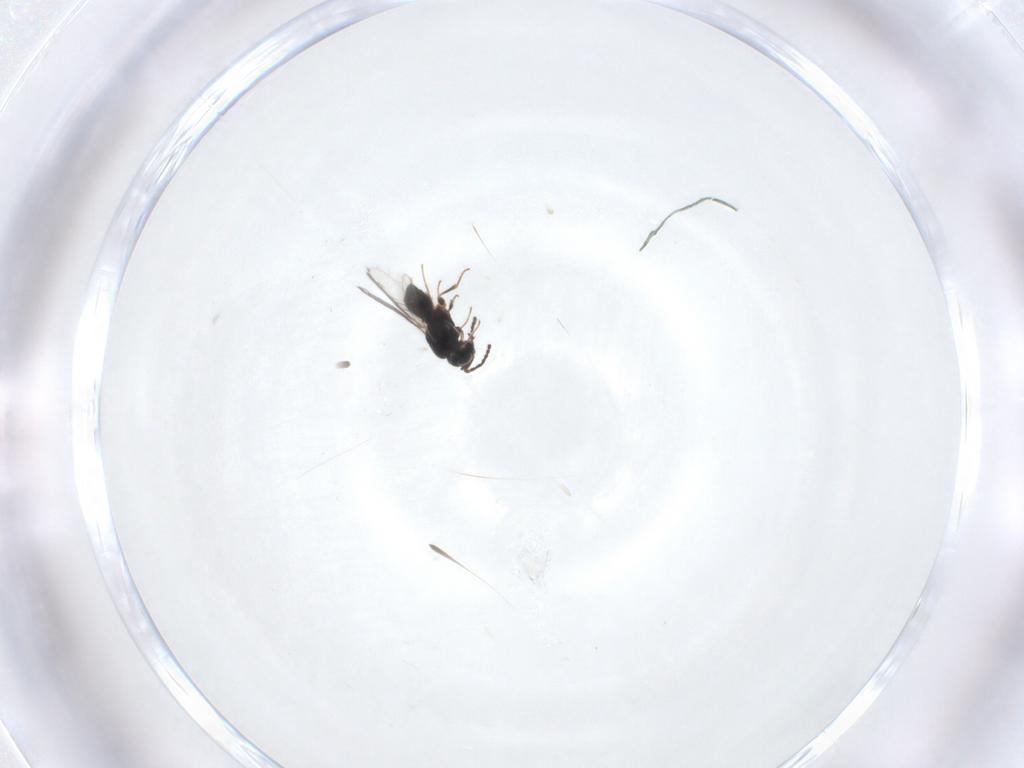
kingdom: Animalia
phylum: Arthropoda
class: Insecta
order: Hymenoptera
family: Scelionidae
